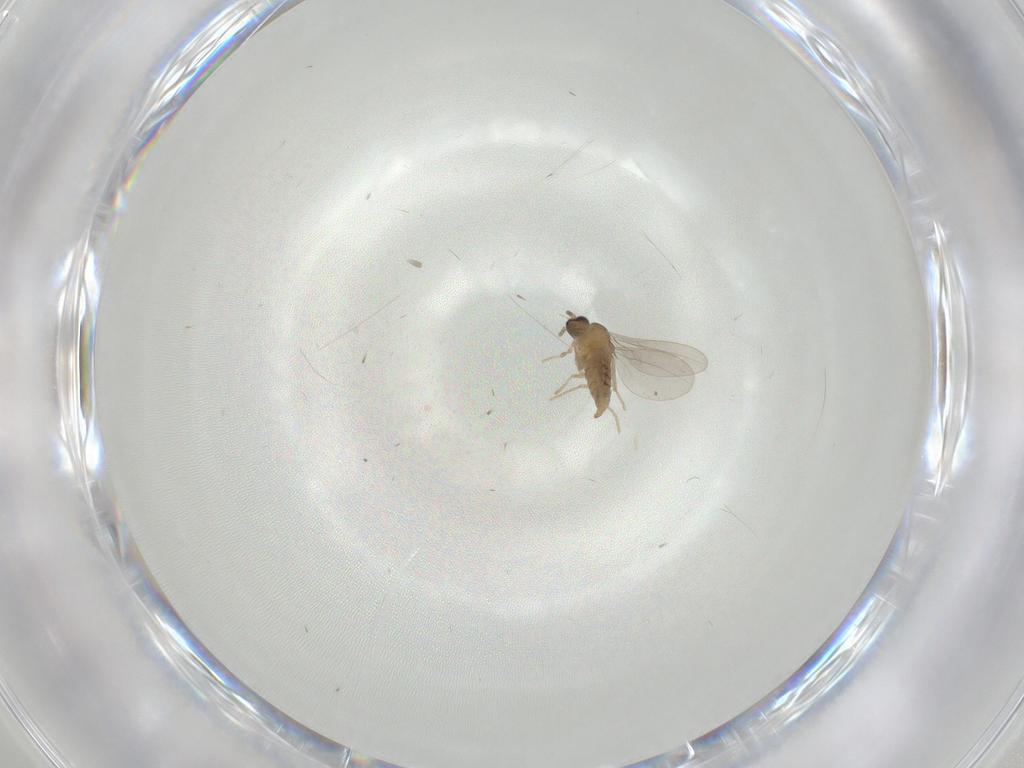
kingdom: Animalia
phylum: Arthropoda
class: Insecta
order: Diptera
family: Cecidomyiidae
